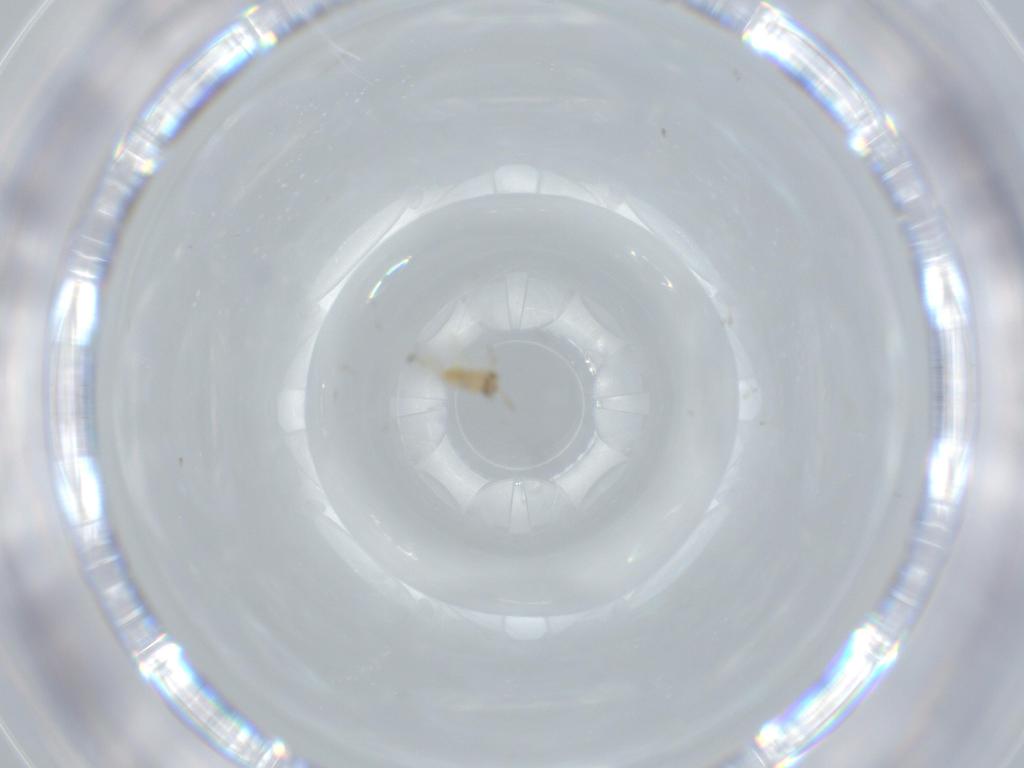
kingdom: Animalia
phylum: Arthropoda
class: Insecta
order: Hymenoptera
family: Aphelinidae
